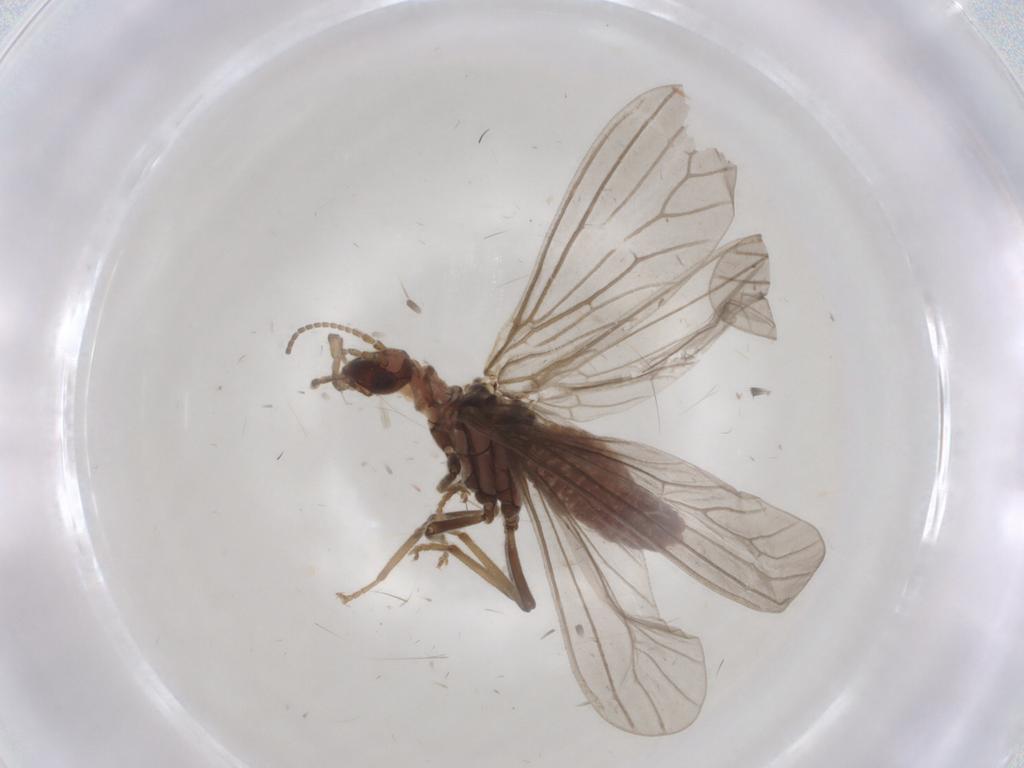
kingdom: Animalia
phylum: Arthropoda
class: Insecta
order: Neuroptera
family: Coniopterygidae
